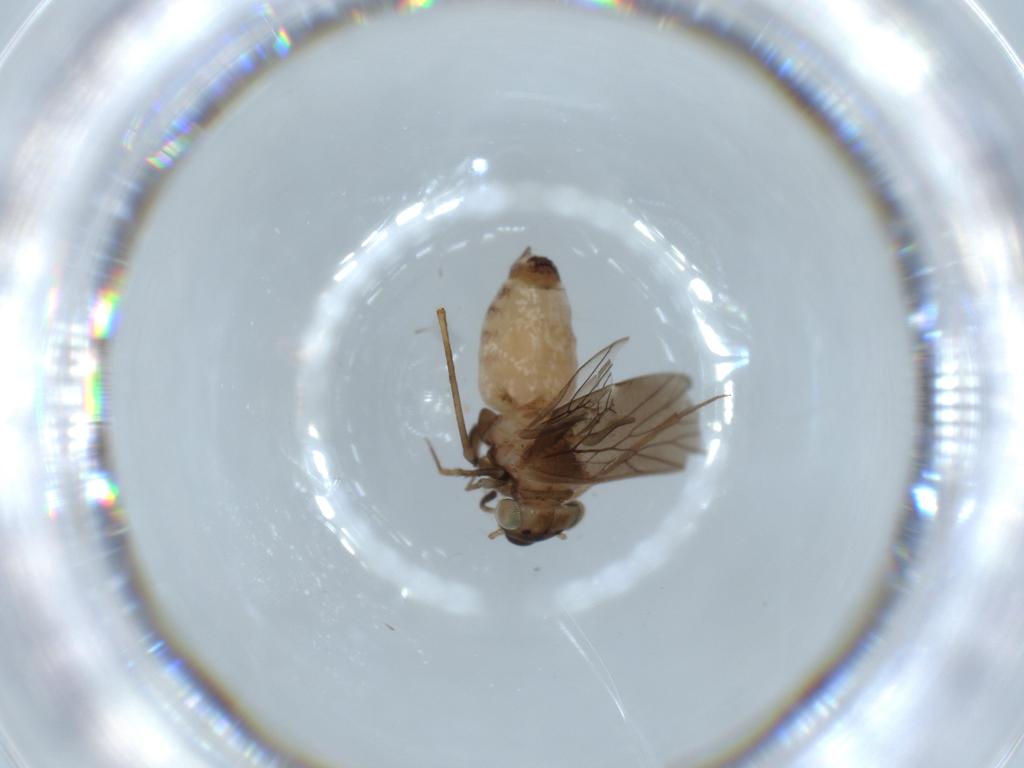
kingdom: Animalia
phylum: Arthropoda
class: Insecta
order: Psocodea
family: Lepidopsocidae
